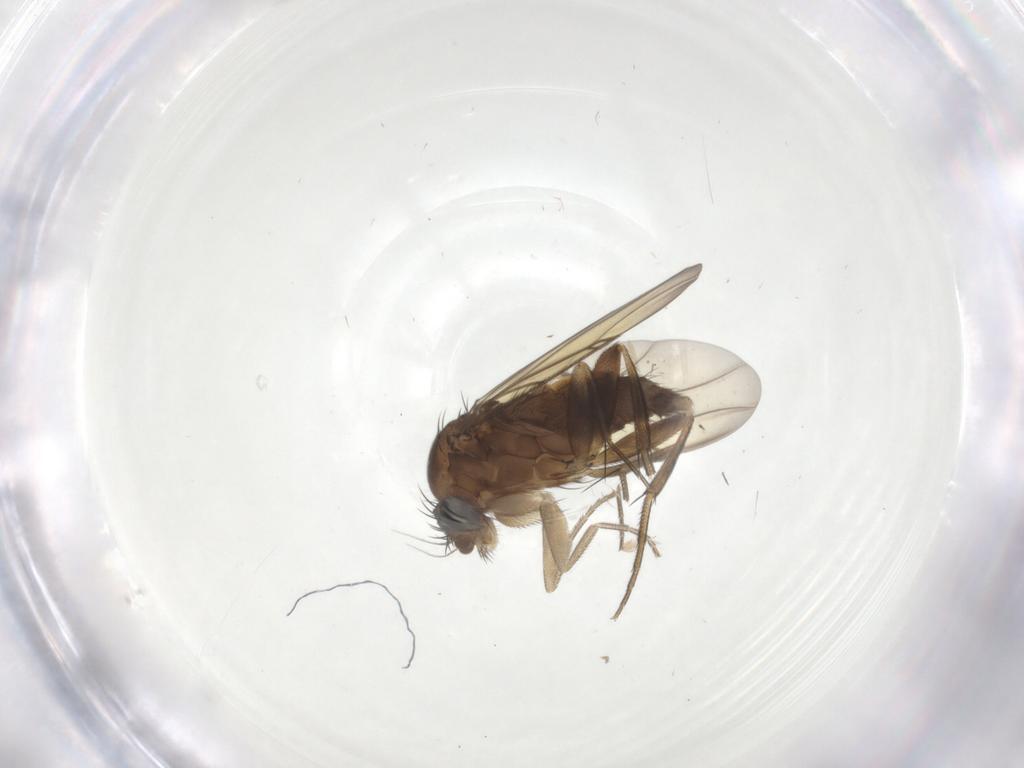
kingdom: Animalia
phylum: Arthropoda
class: Insecta
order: Diptera
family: Phoridae
